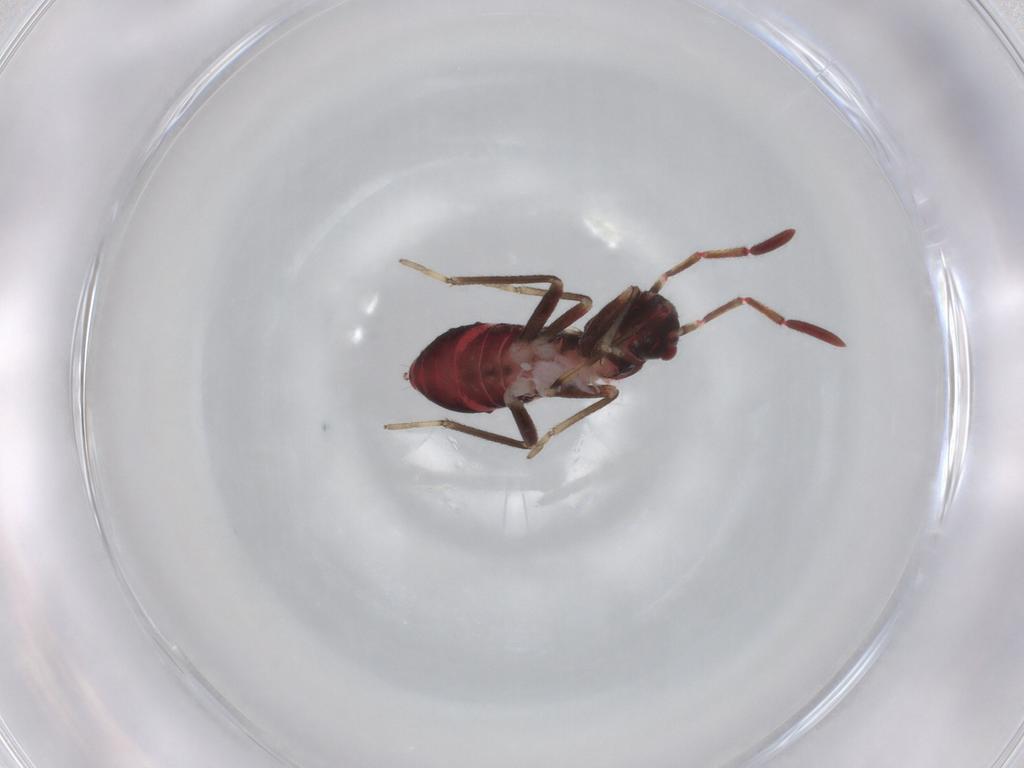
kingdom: Animalia
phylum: Arthropoda
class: Insecta
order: Hemiptera
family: Rhyparochromidae
